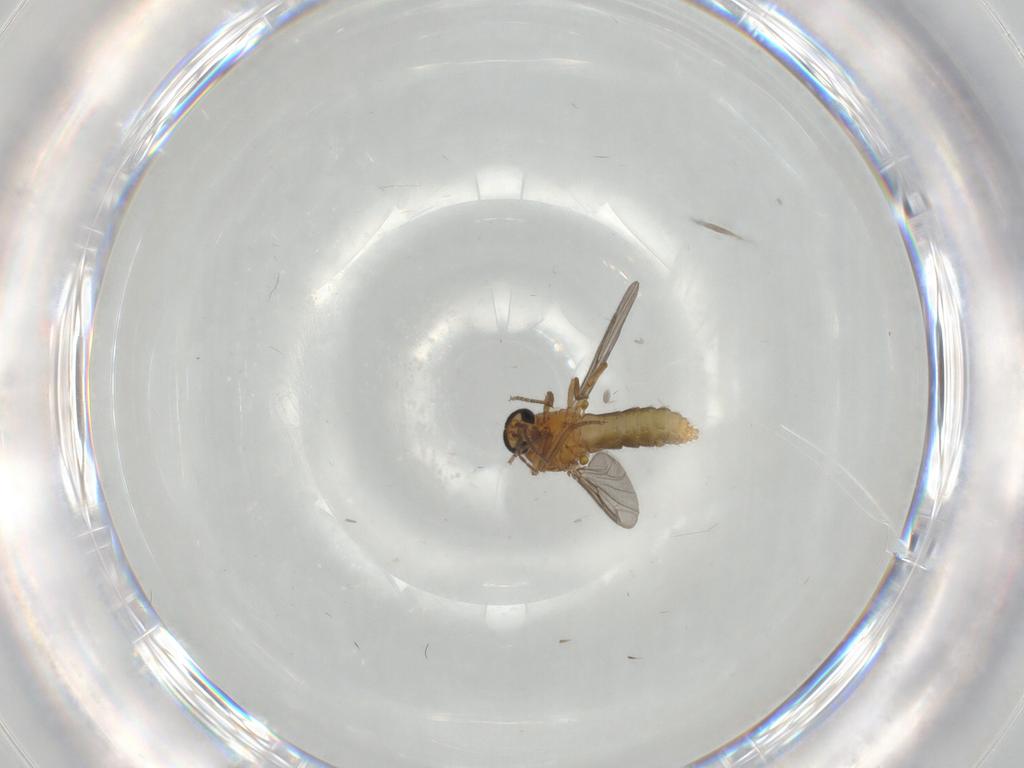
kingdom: Animalia
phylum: Arthropoda
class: Insecta
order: Diptera
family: Ceratopogonidae
